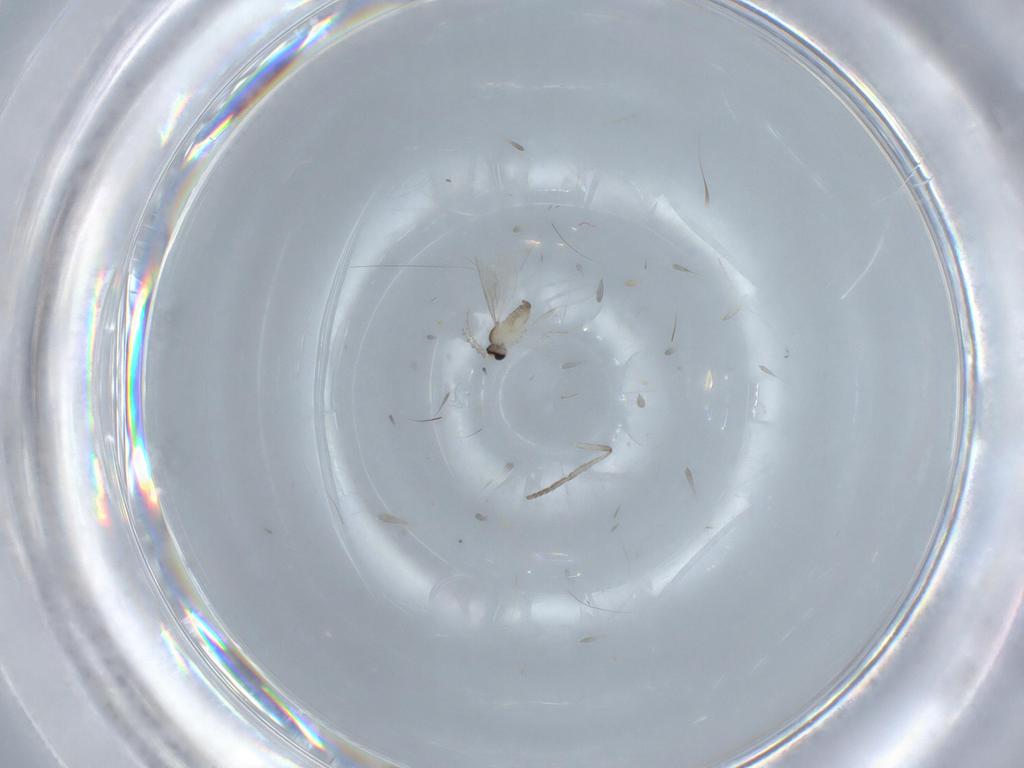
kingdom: Animalia
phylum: Arthropoda
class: Insecta
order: Diptera
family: Cecidomyiidae
